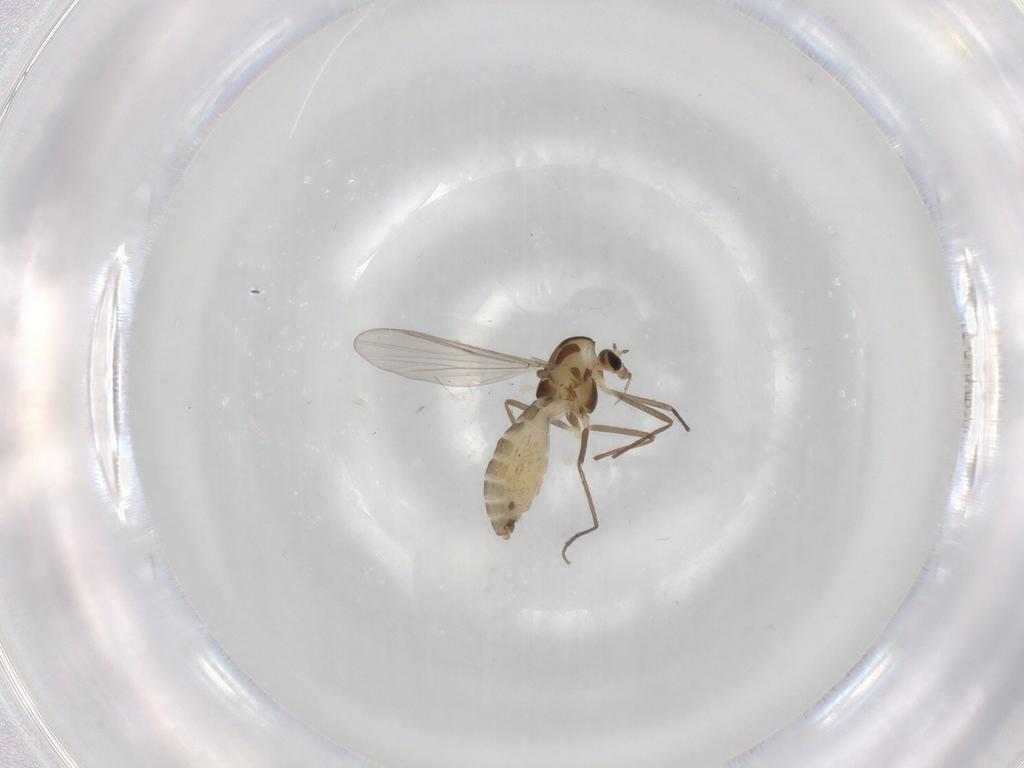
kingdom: Animalia
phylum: Arthropoda
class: Insecta
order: Diptera
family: Chironomidae
